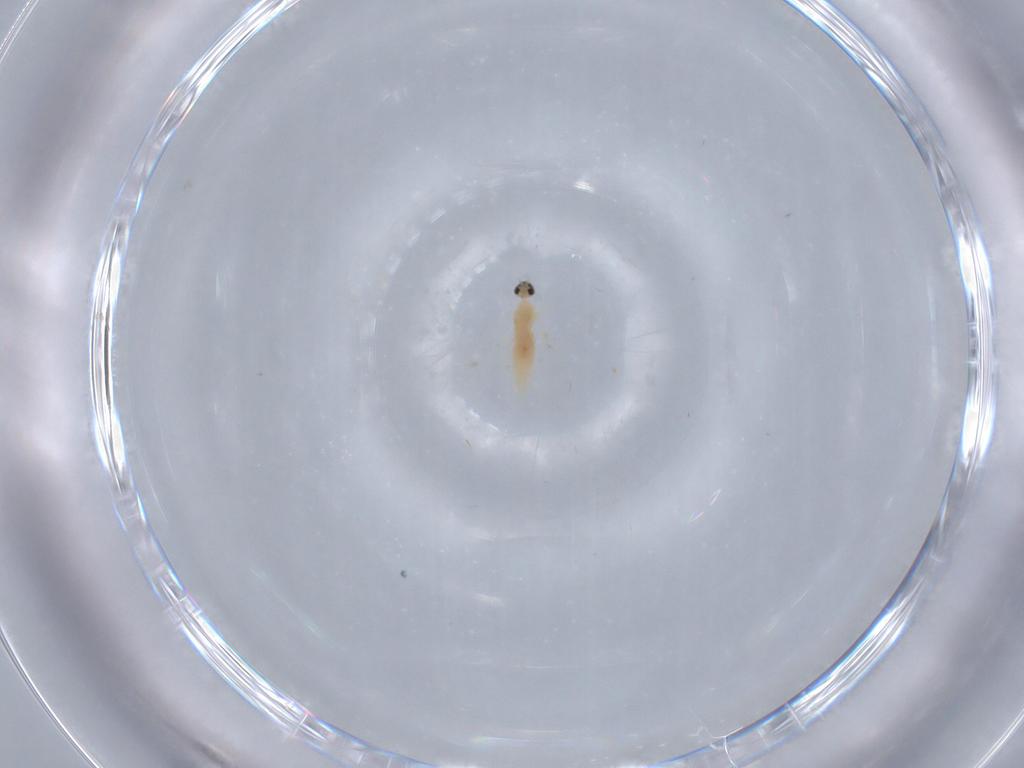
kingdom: Animalia
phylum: Arthropoda
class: Insecta
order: Diptera
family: Cecidomyiidae
